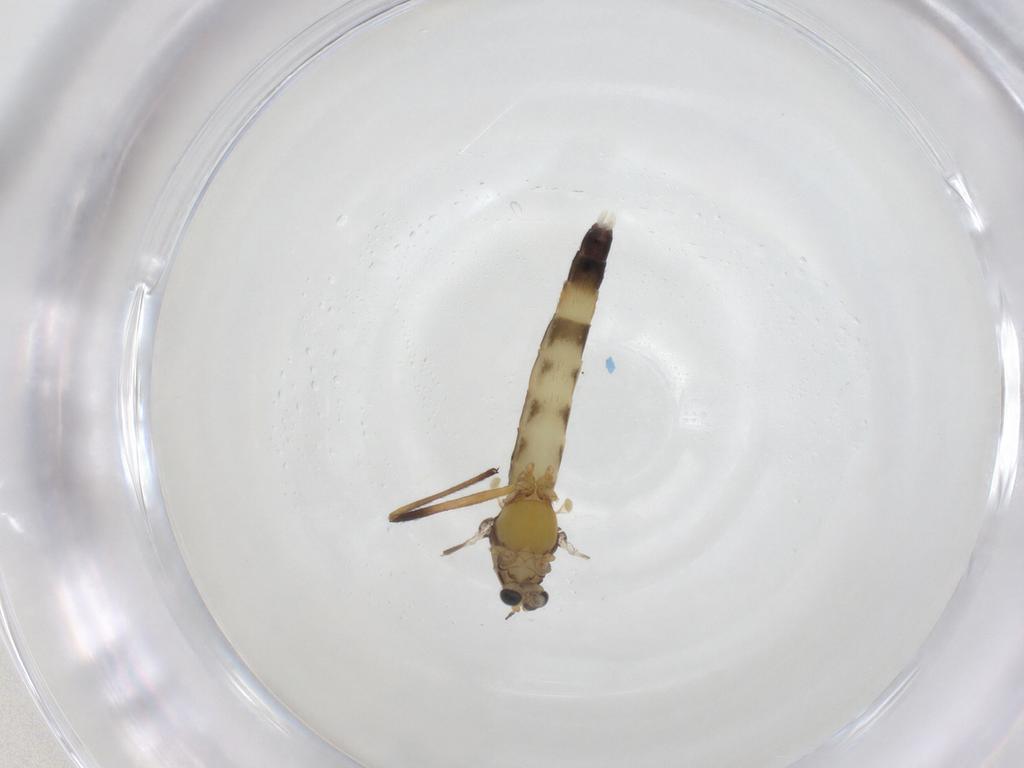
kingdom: Animalia
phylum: Arthropoda
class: Insecta
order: Diptera
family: Chironomidae
